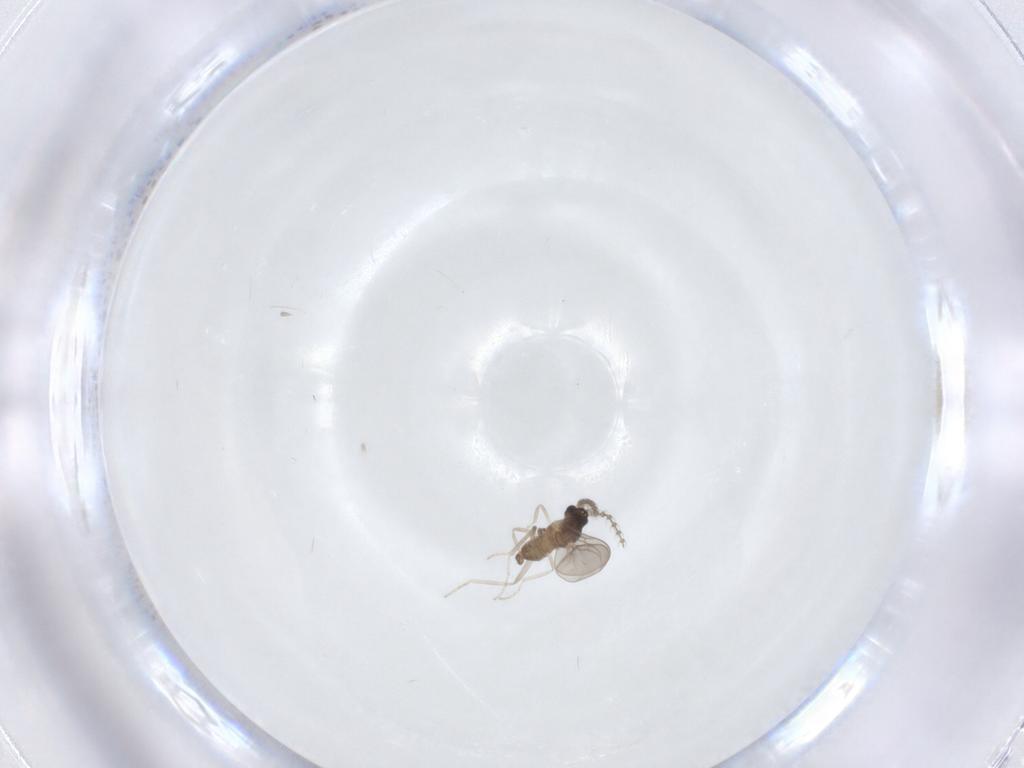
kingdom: Animalia
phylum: Arthropoda
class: Insecta
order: Diptera
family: Cecidomyiidae
